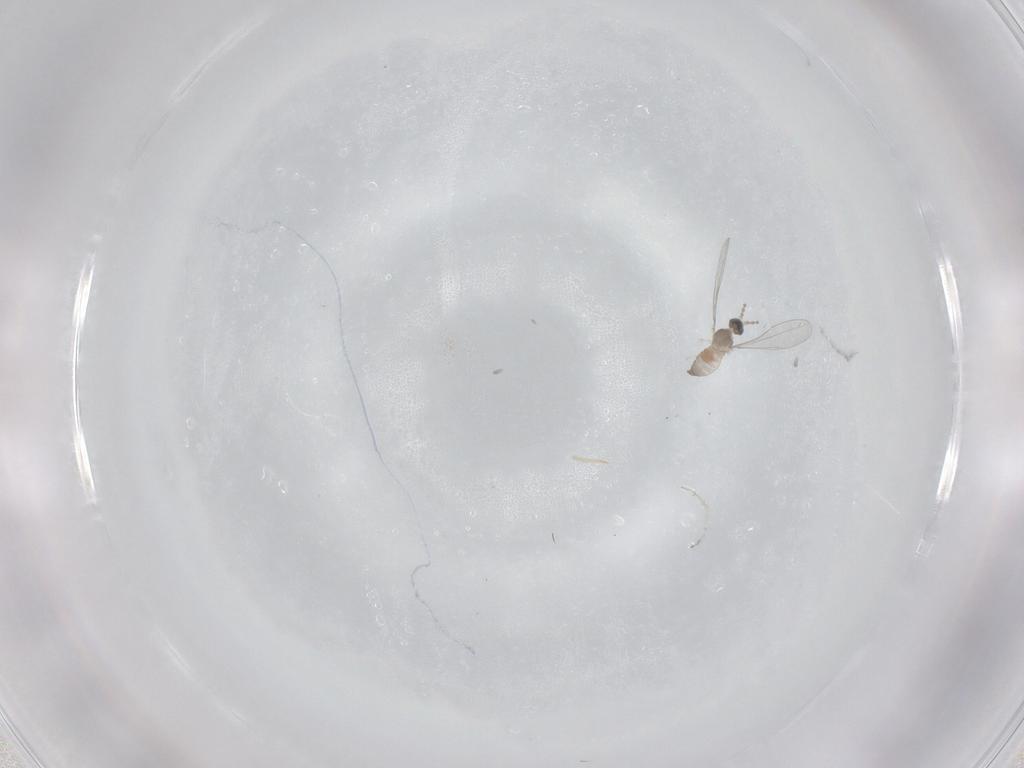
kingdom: Animalia
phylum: Arthropoda
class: Insecta
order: Diptera
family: Cecidomyiidae
